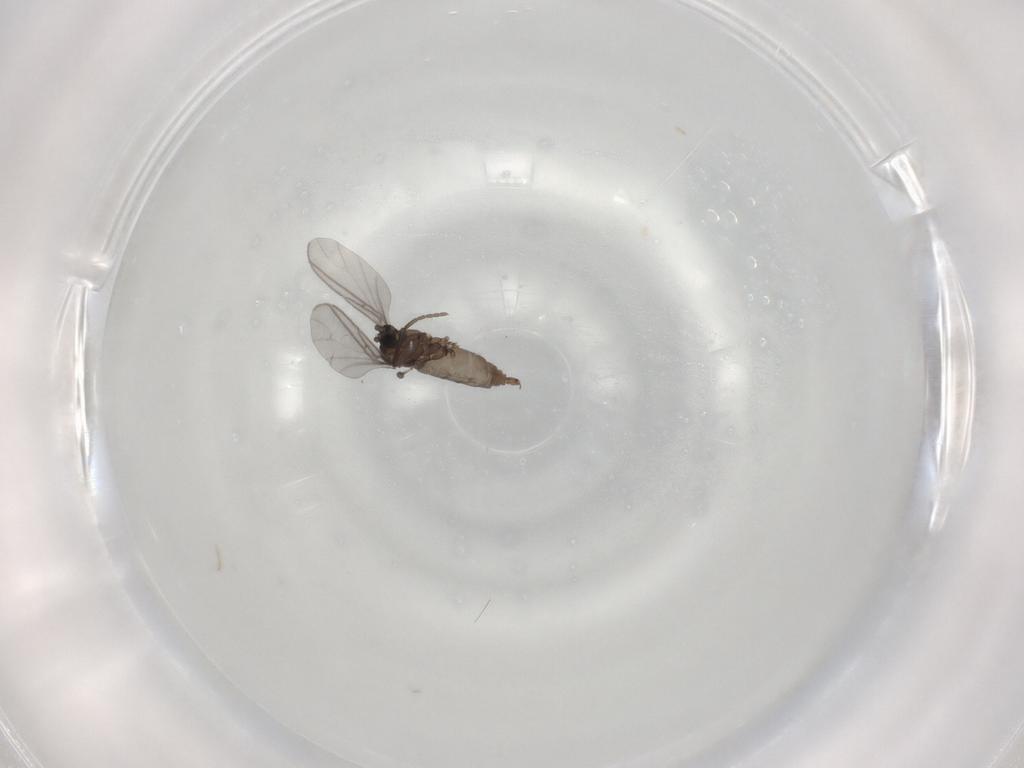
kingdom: Animalia
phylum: Arthropoda
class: Insecta
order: Diptera
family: Sciaridae
